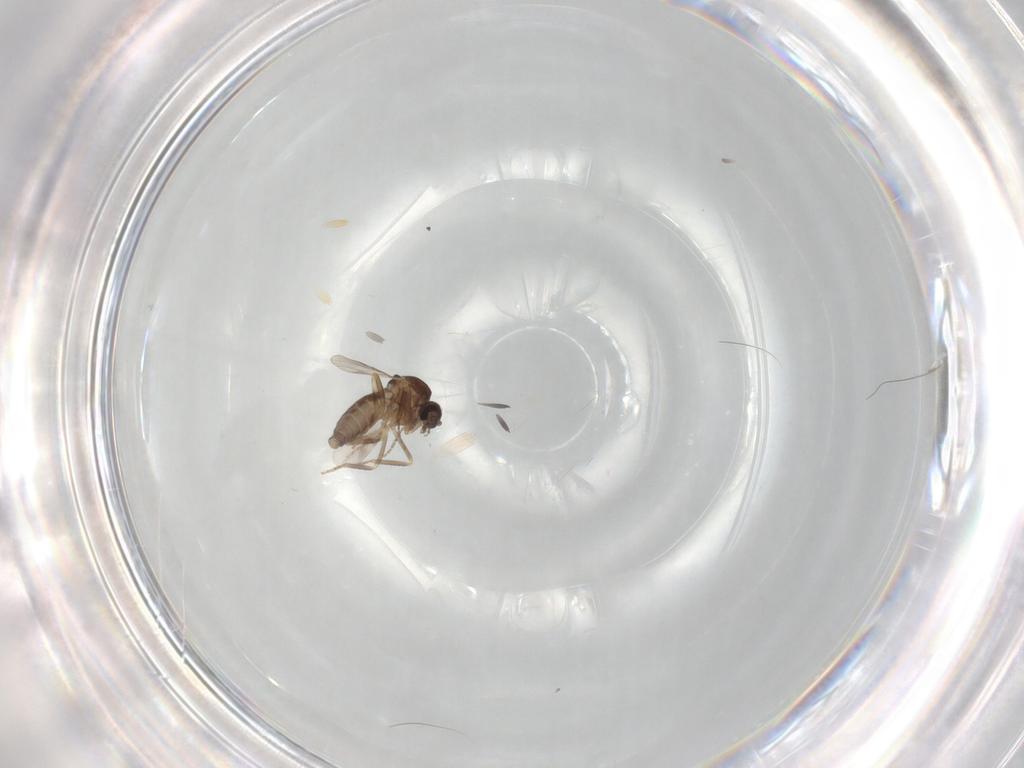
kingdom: Animalia
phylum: Arthropoda
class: Insecta
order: Diptera
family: Ceratopogonidae
